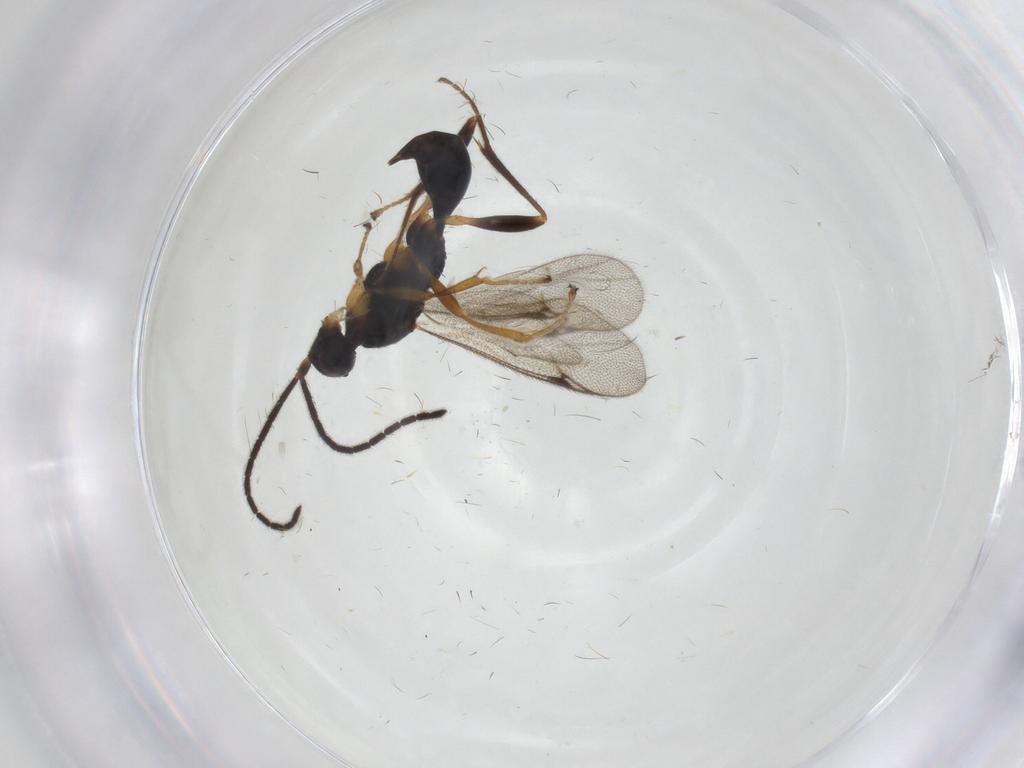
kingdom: Animalia
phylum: Arthropoda
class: Insecta
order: Hymenoptera
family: Proctotrupidae
